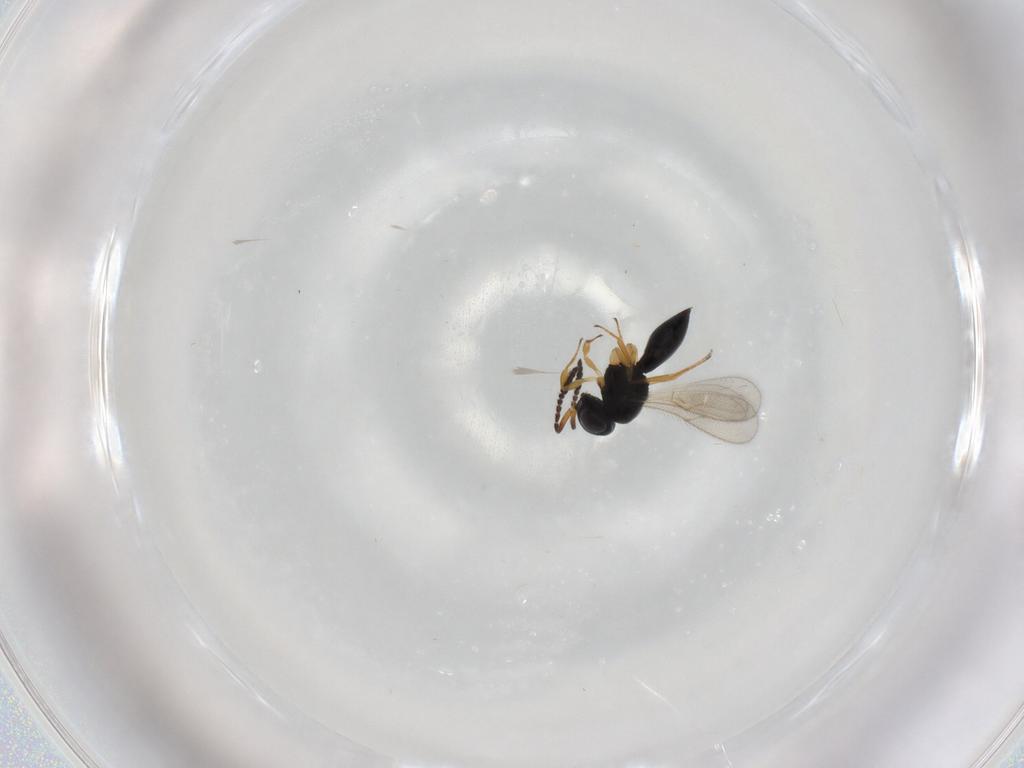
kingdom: Animalia
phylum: Arthropoda
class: Insecta
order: Hymenoptera
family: Scelionidae
